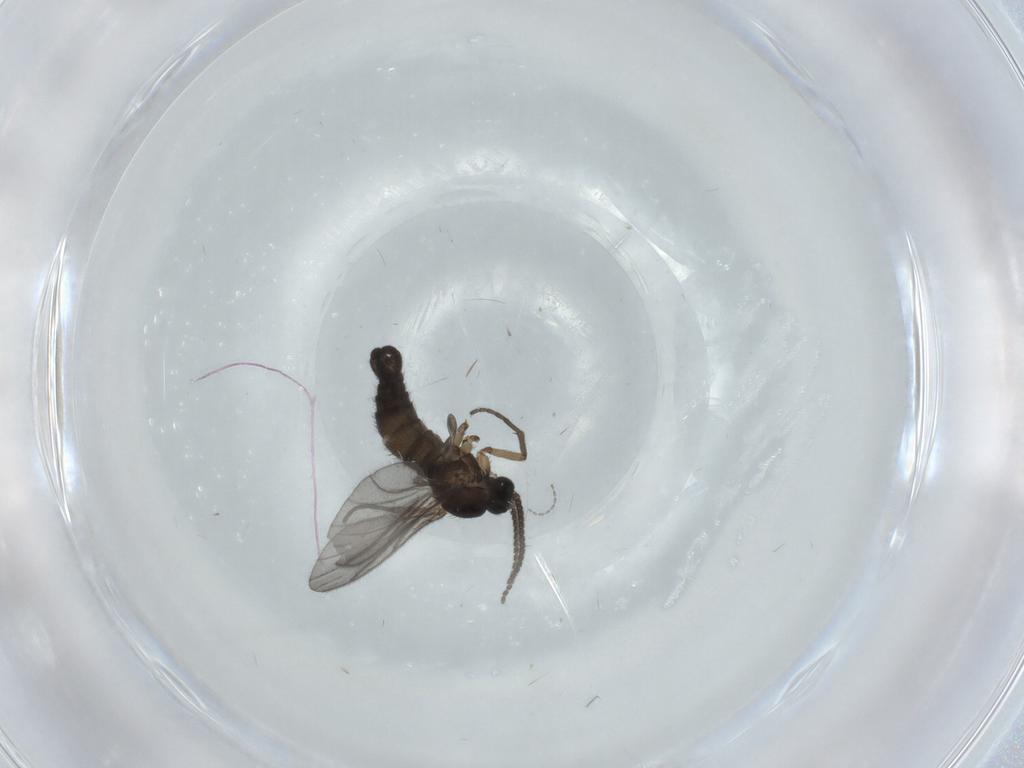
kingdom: Animalia
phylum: Arthropoda
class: Insecta
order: Diptera
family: Sciaridae
